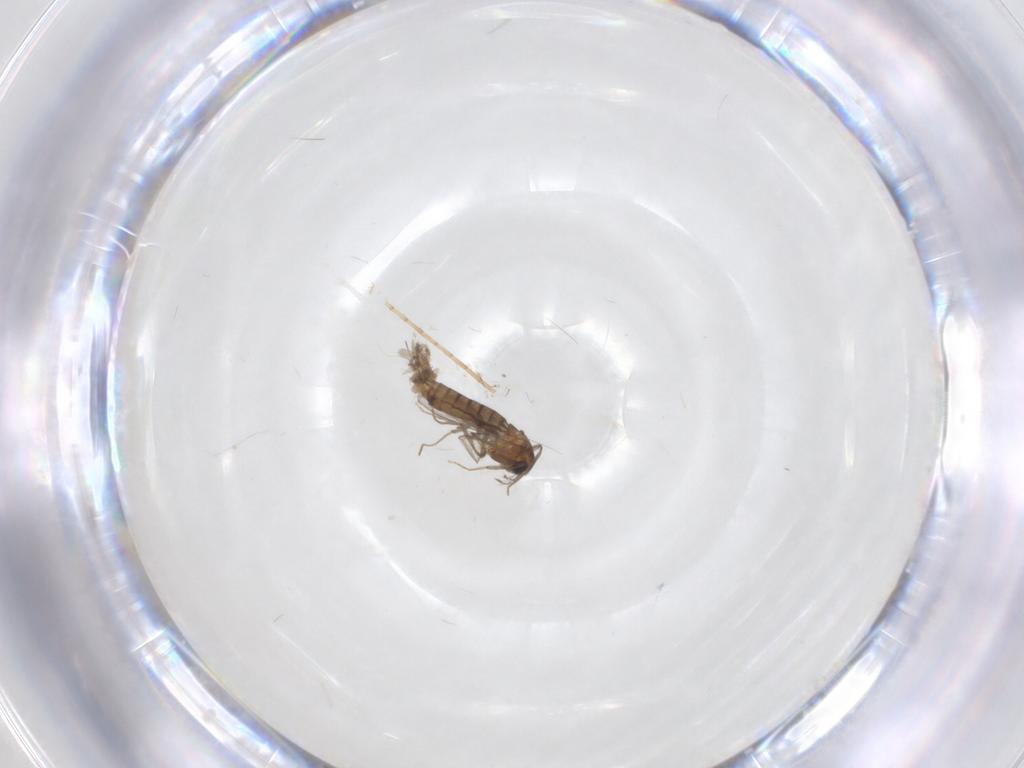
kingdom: Animalia
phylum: Arthropoda
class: Insecta
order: Diptera
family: Chironomidae
